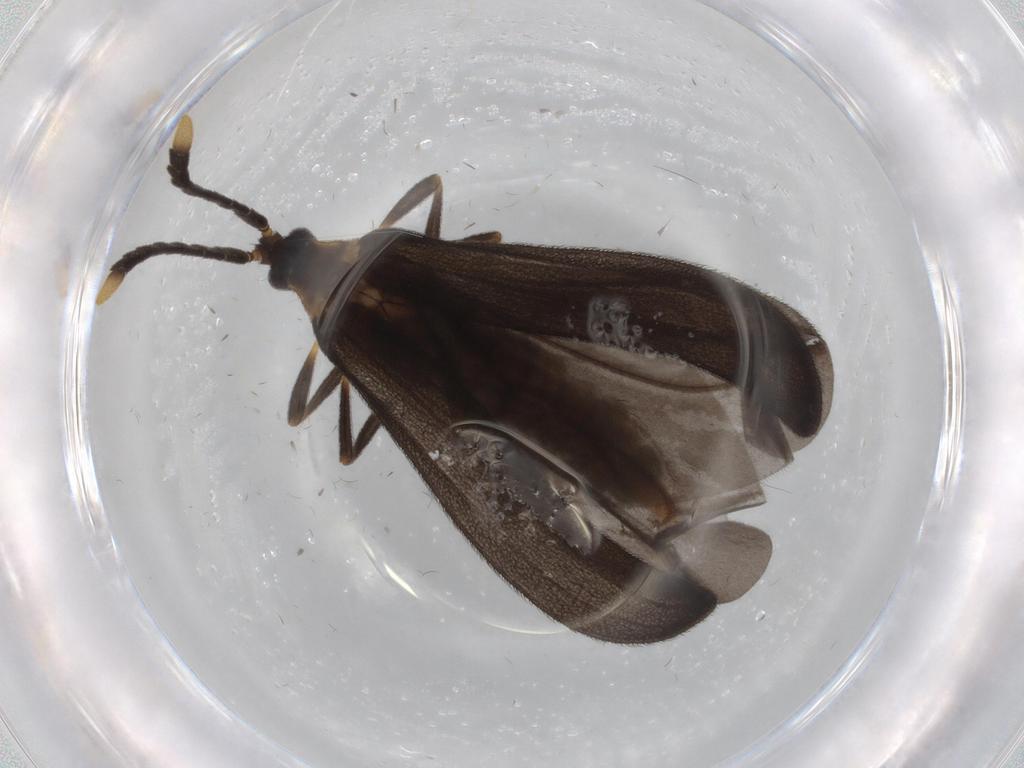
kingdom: Animalia
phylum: Arthropoda
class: Insecta
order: Coleoptera
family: Lycidae
